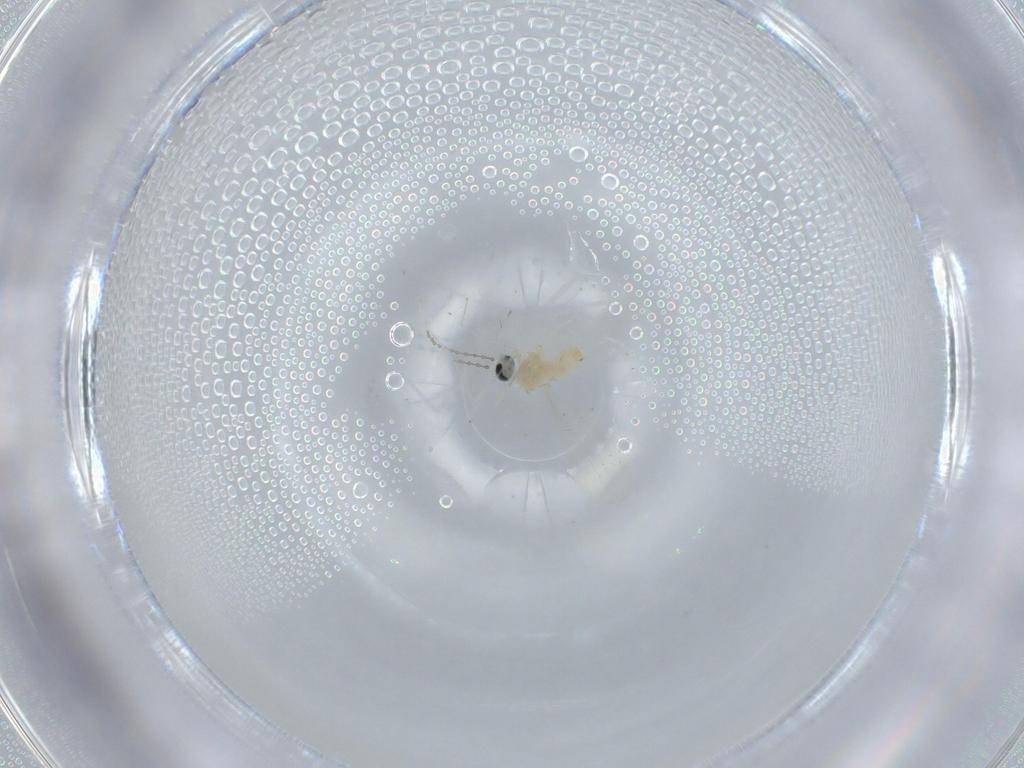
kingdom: Animalia
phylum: Arthropoda
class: Insecta
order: Diptera
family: Cecidomyiidae
